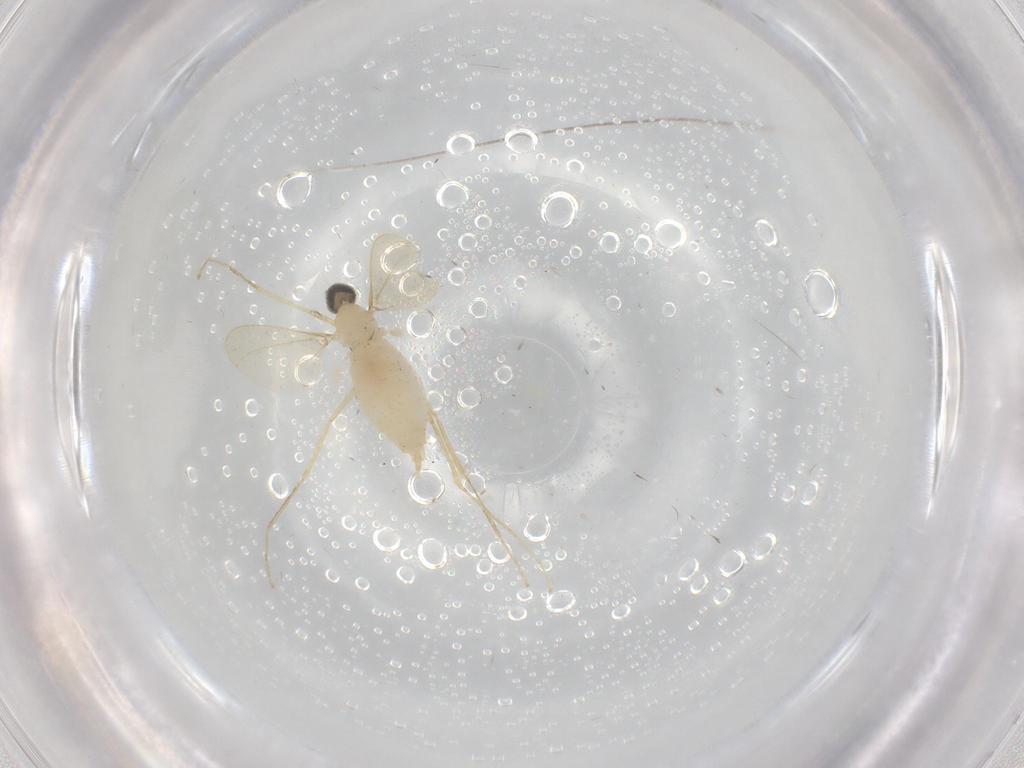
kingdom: Animalia
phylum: Arthropoda
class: Insecta
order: Diptera
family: Cecidomyiidae
